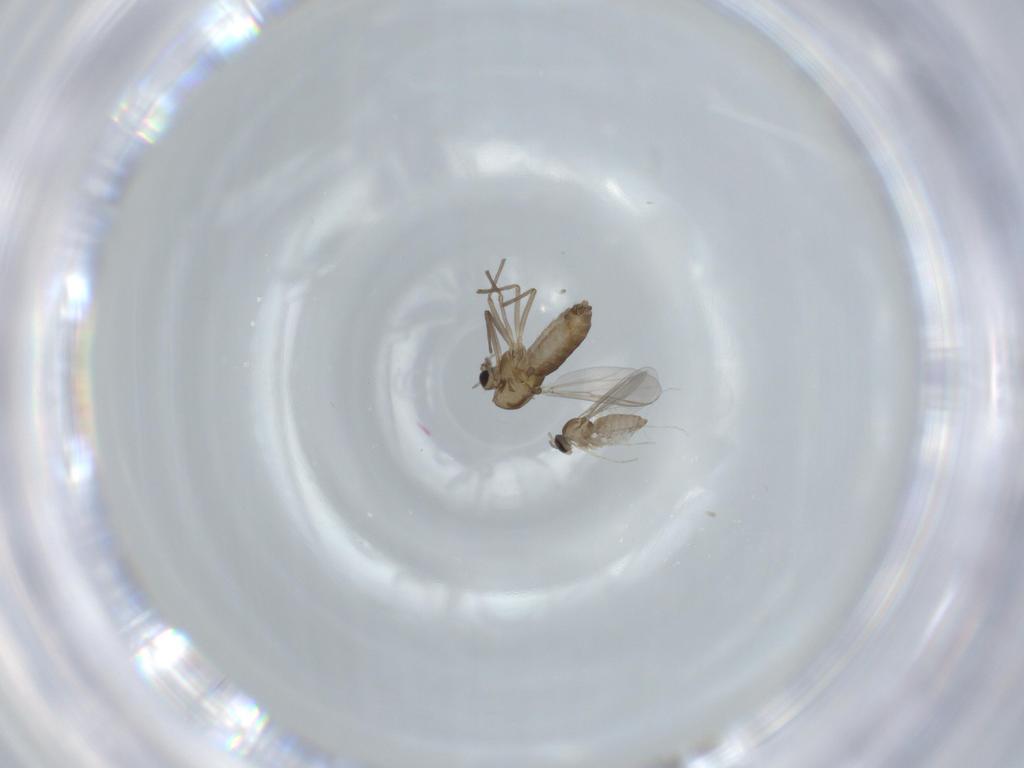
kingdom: Animalia
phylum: Arthropoda
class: Insecta
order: Diptera
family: Chironomidae
